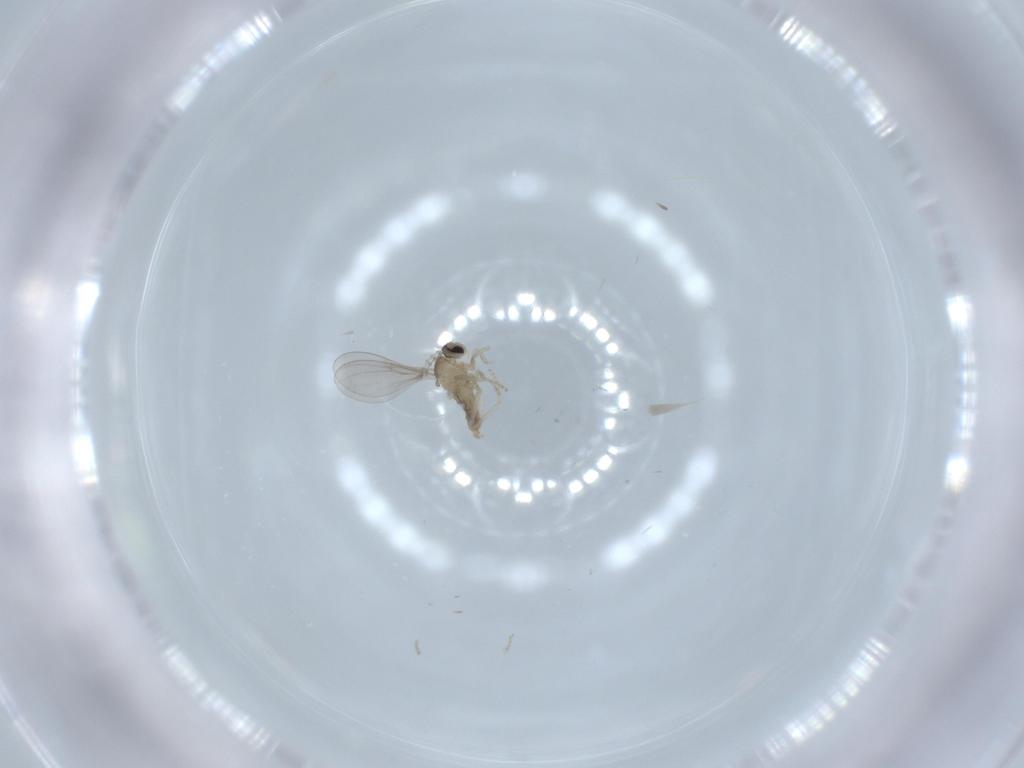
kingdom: Animalia
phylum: Arthropoda
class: Insecta
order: Diptera
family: Cecidomyiidae
